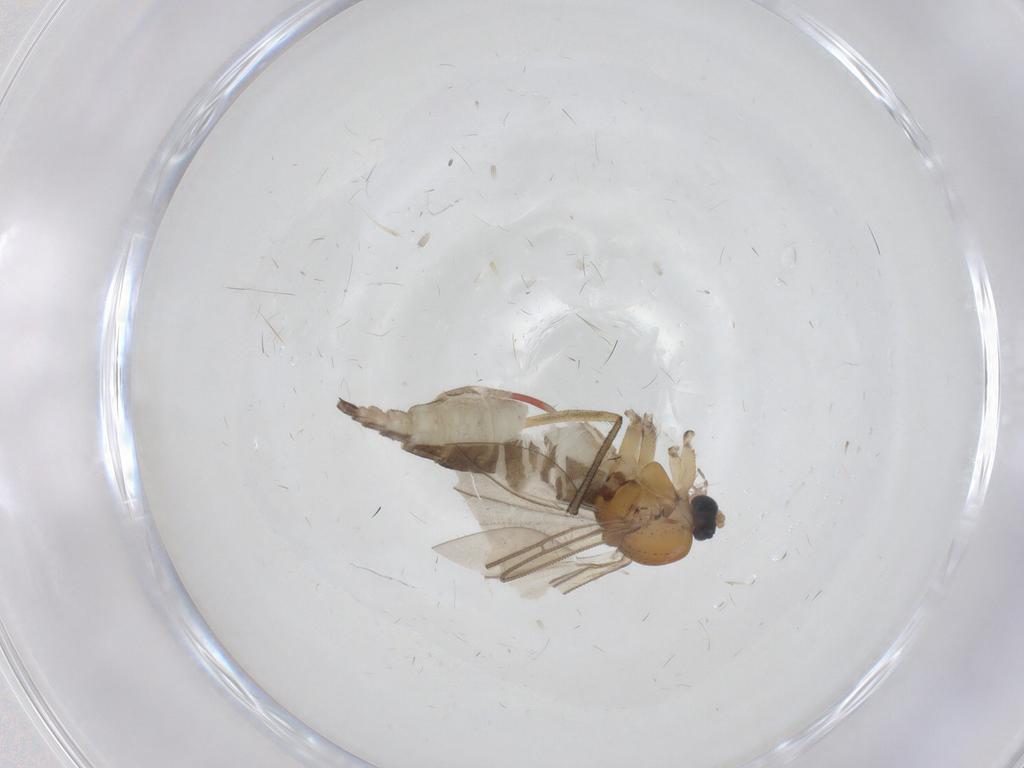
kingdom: Animalia
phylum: Arthropoda
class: Insecta
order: Diptera
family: Sciaridae
